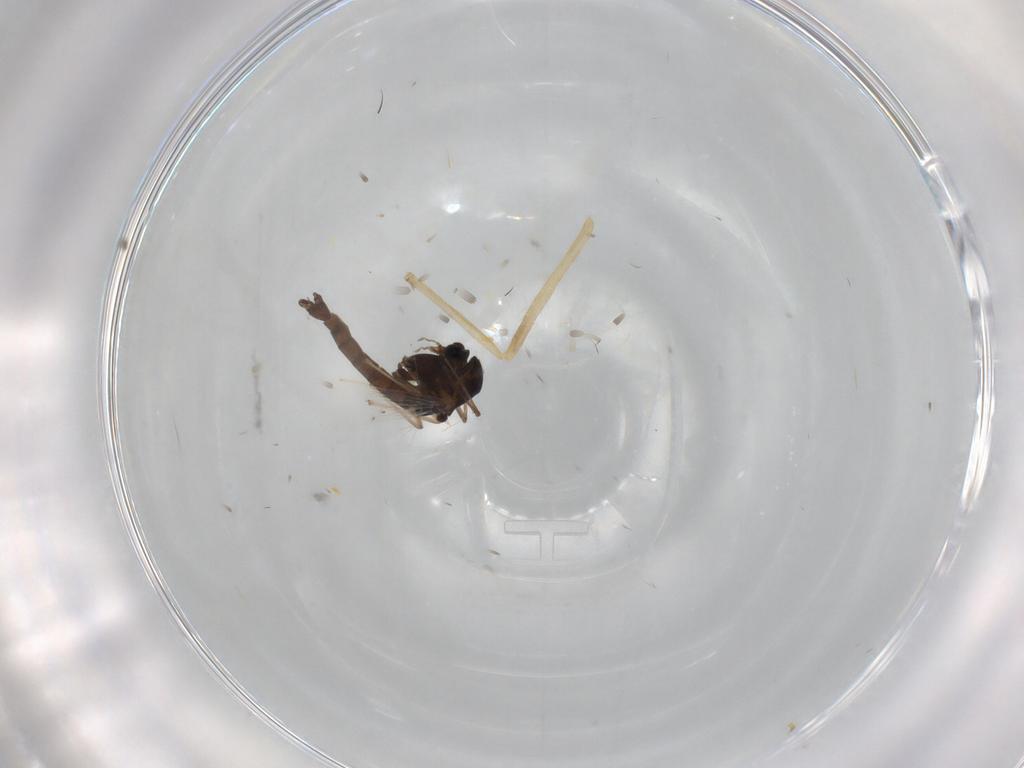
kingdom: Animalia
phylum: Arthropoda
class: Insecta
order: Diptera
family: Chironomidae
